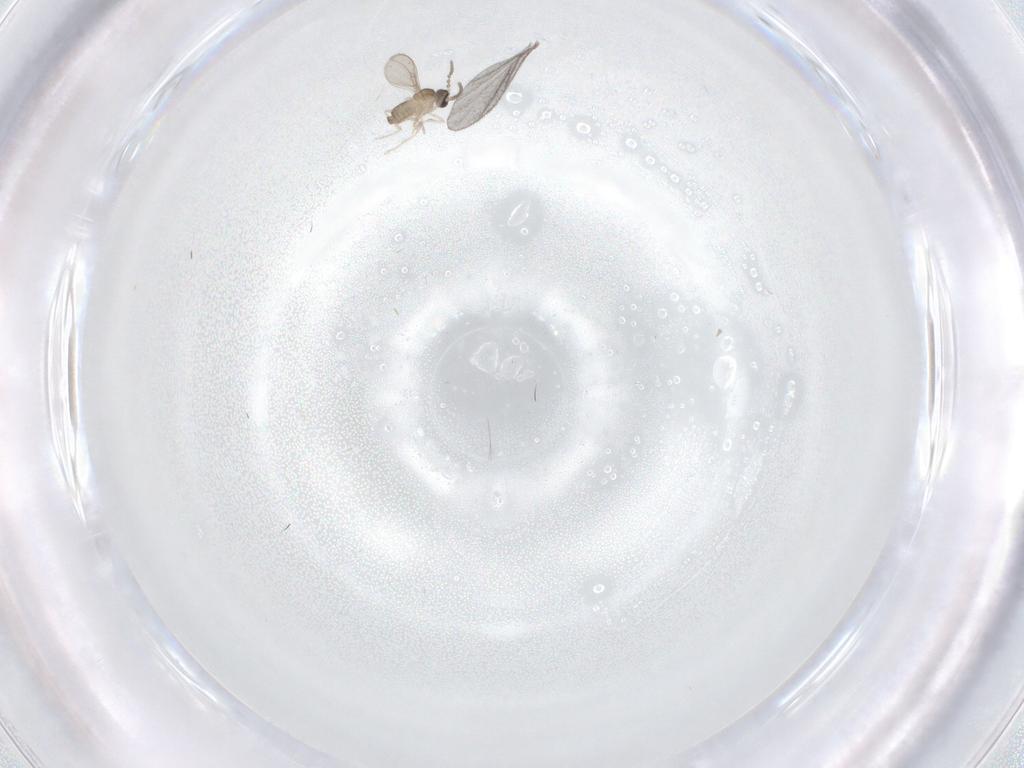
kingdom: Animalia
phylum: Arthropoda
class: Insecta
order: Diptera
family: Cecidomyiidae
